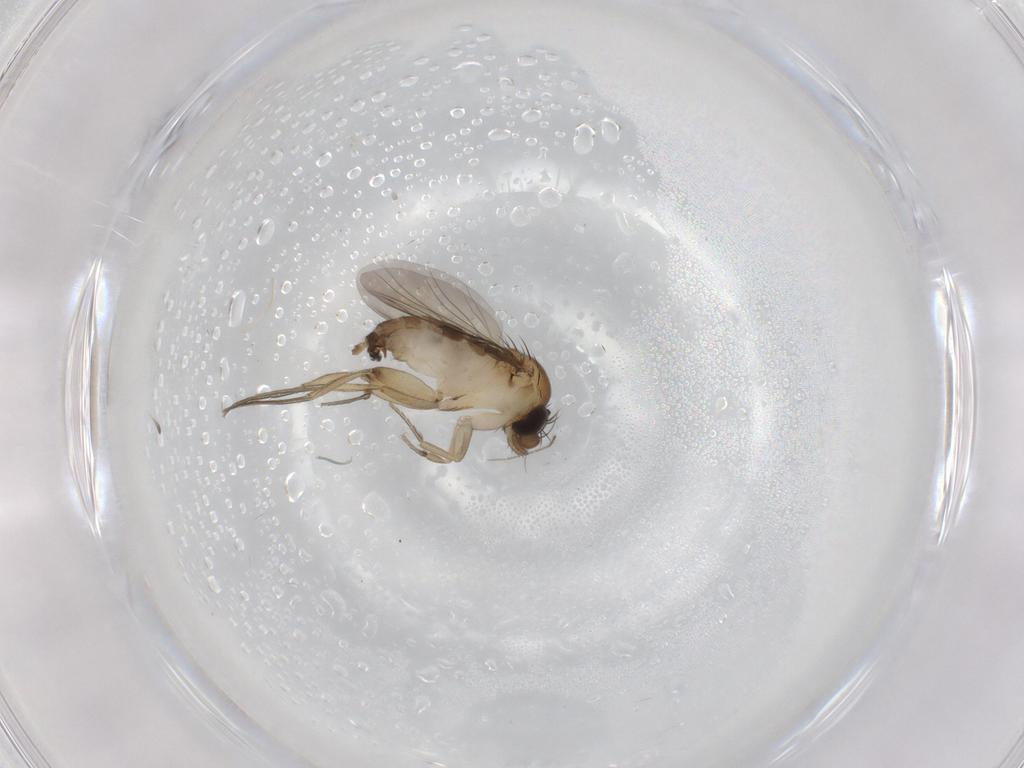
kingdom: Animalia
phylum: Arthropoda
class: Insecta
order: Diptera
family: Phoridae
